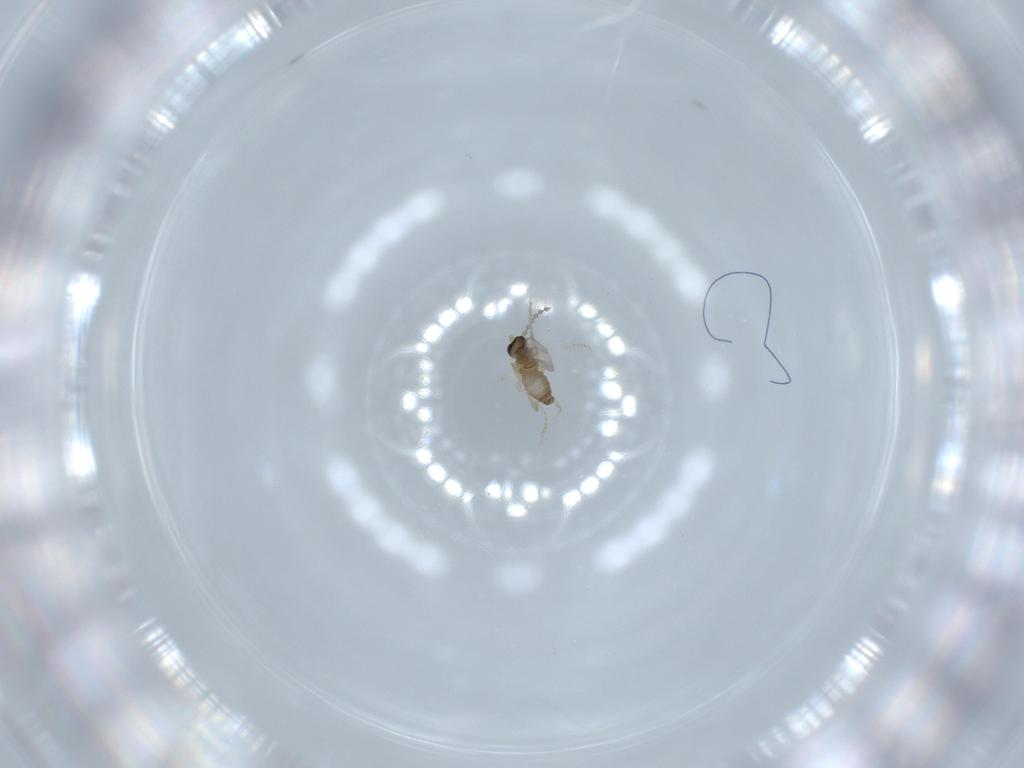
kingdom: Animalia
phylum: Arthropoda
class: Insecta
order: Diptera
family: Cecidomyiidae
